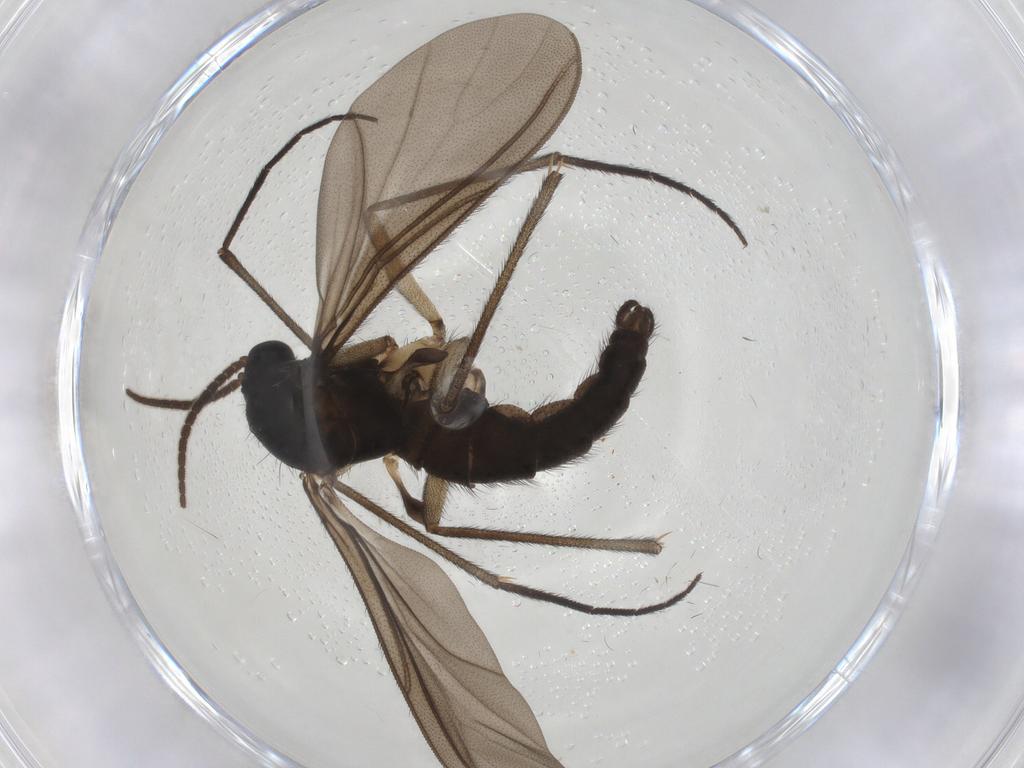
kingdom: Animalia
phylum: Arthropoda
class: Insecta
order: Diptera
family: Sciaridae
